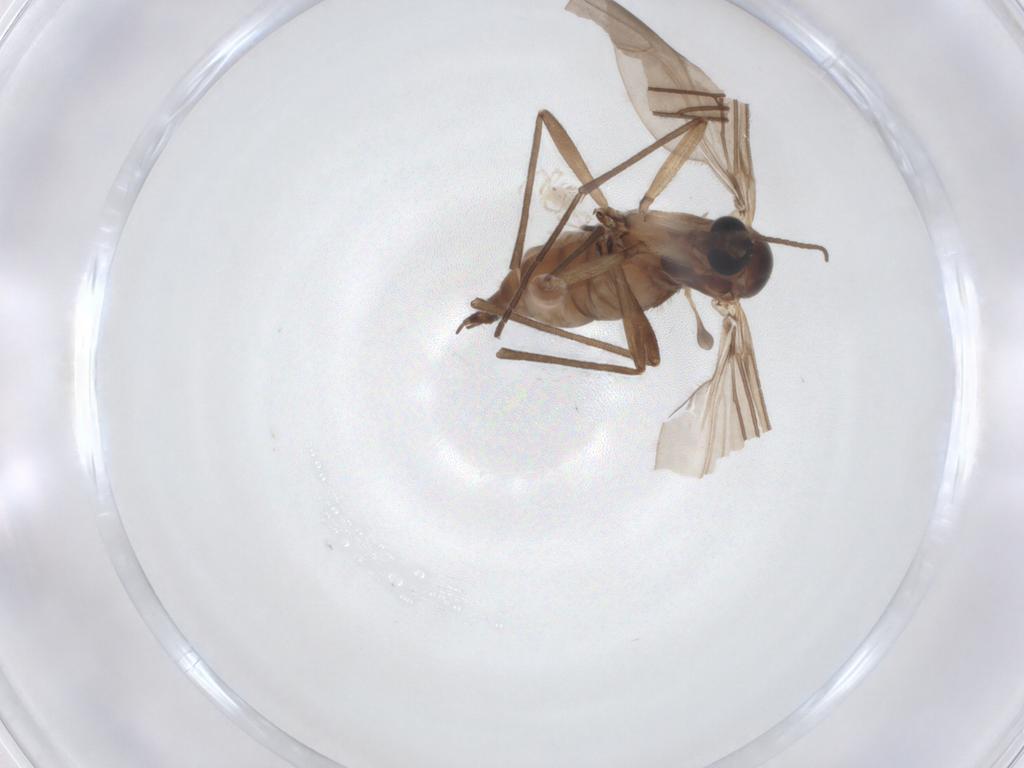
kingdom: Animalia
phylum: Arthropoda
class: Insecta
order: Diptera
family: Sciaridae
